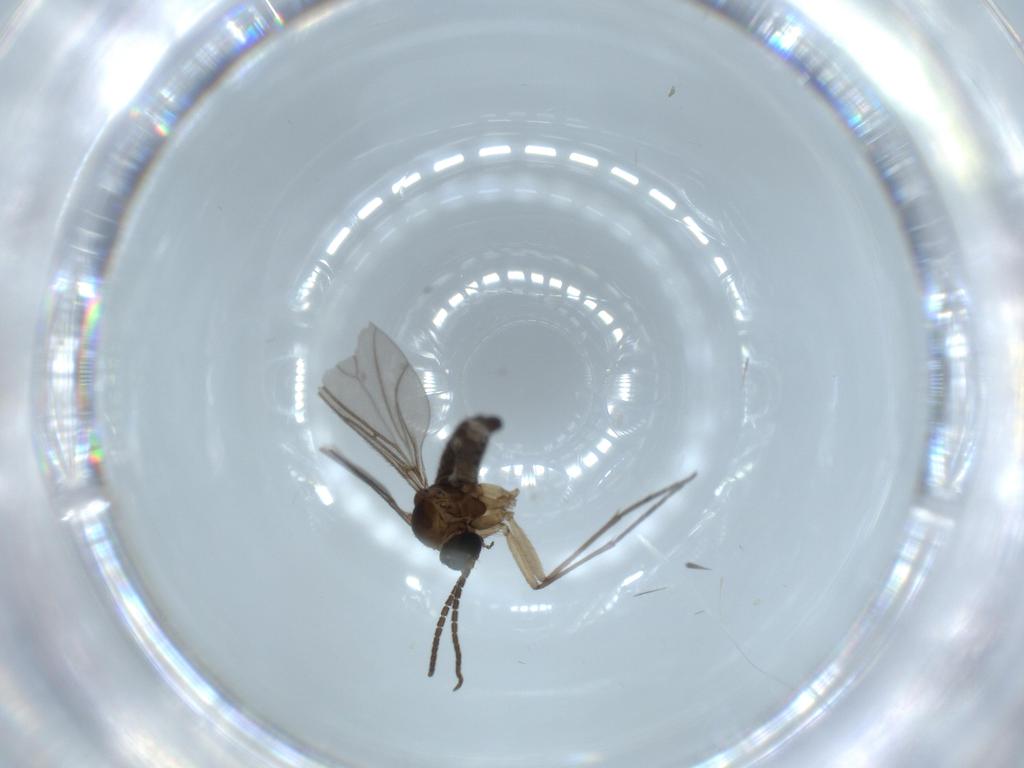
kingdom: Animalia
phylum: Arthropoda
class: Insecta
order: Diptera
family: Sciaridae
